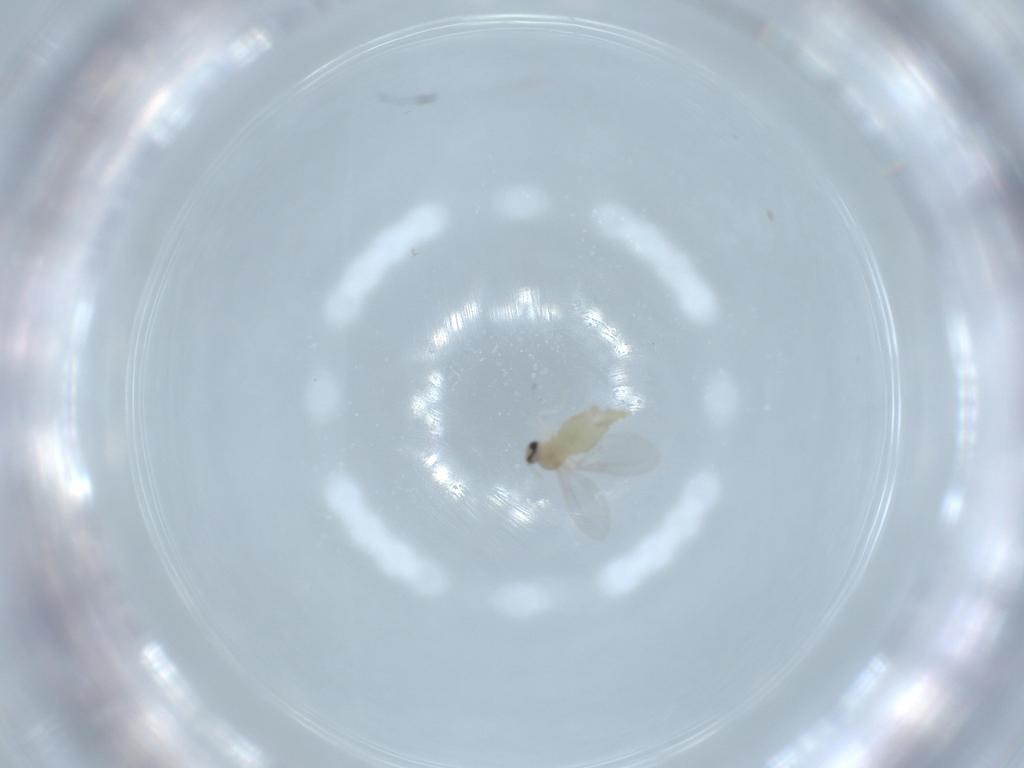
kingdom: Animalia
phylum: Arthropoda
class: Insecta
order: Diptera
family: Cecidomyiidae
